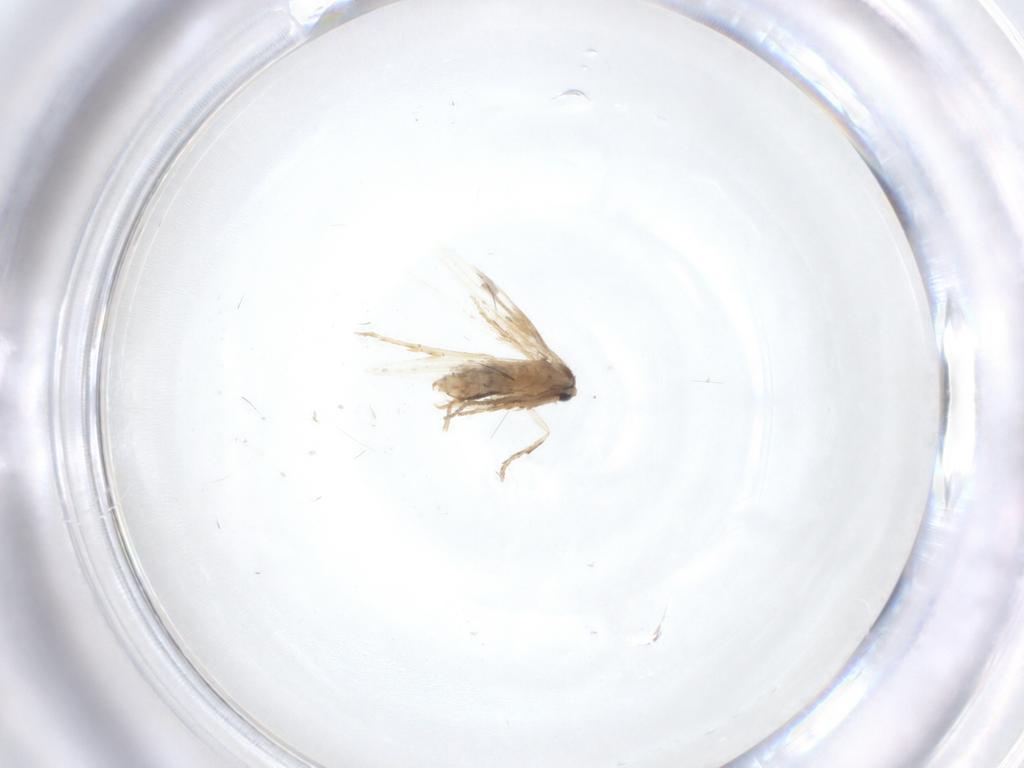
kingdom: Animalia
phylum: Arthropoda
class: Insecta
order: Lepidoptera
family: Nepticulidae
